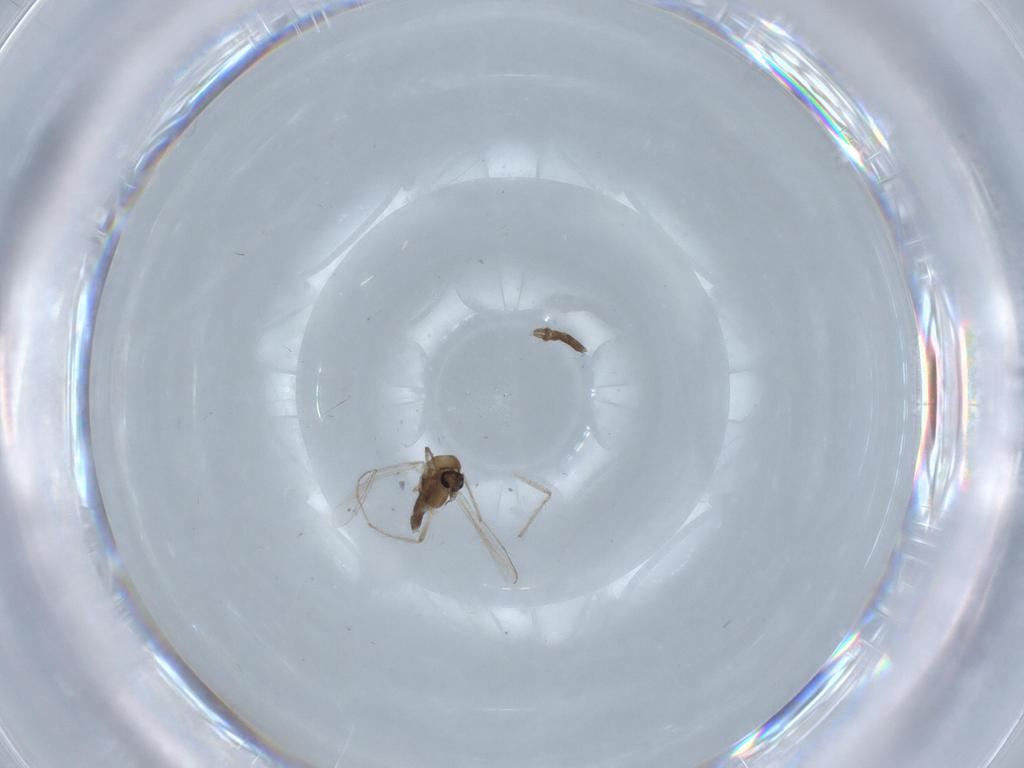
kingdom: Animalia
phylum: Arthropoda
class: Insecta
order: Diptera
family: Chironomidae
